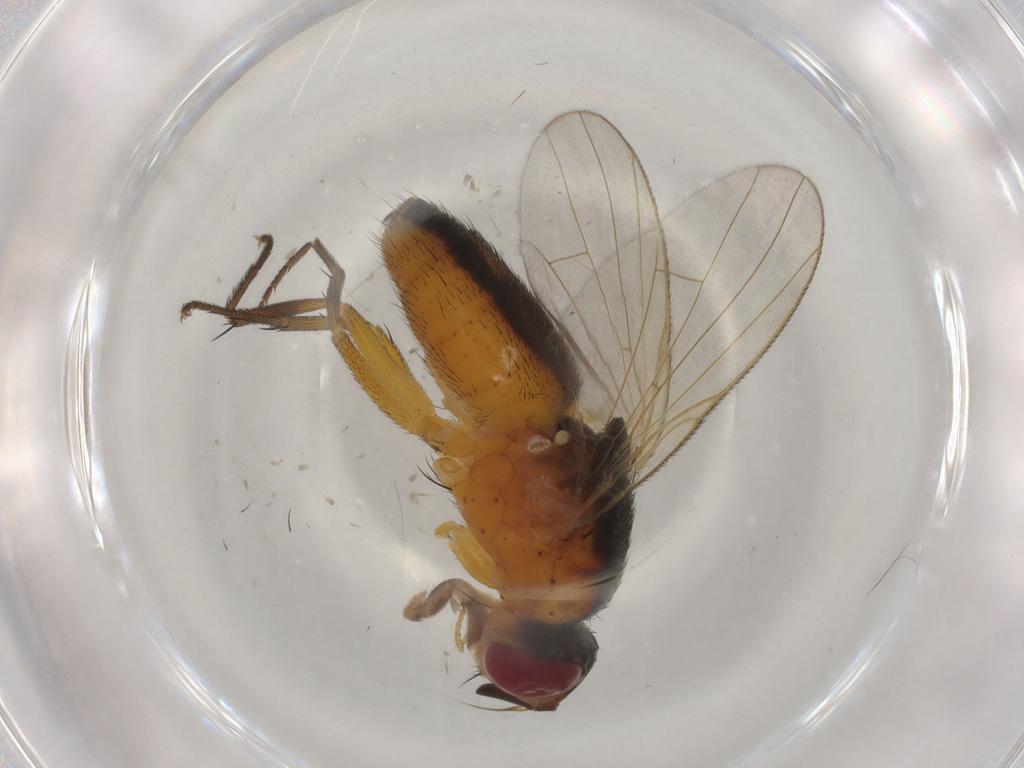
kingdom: Animalia
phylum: Arthropoda
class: Insecta
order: Diptera
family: Muscidae
